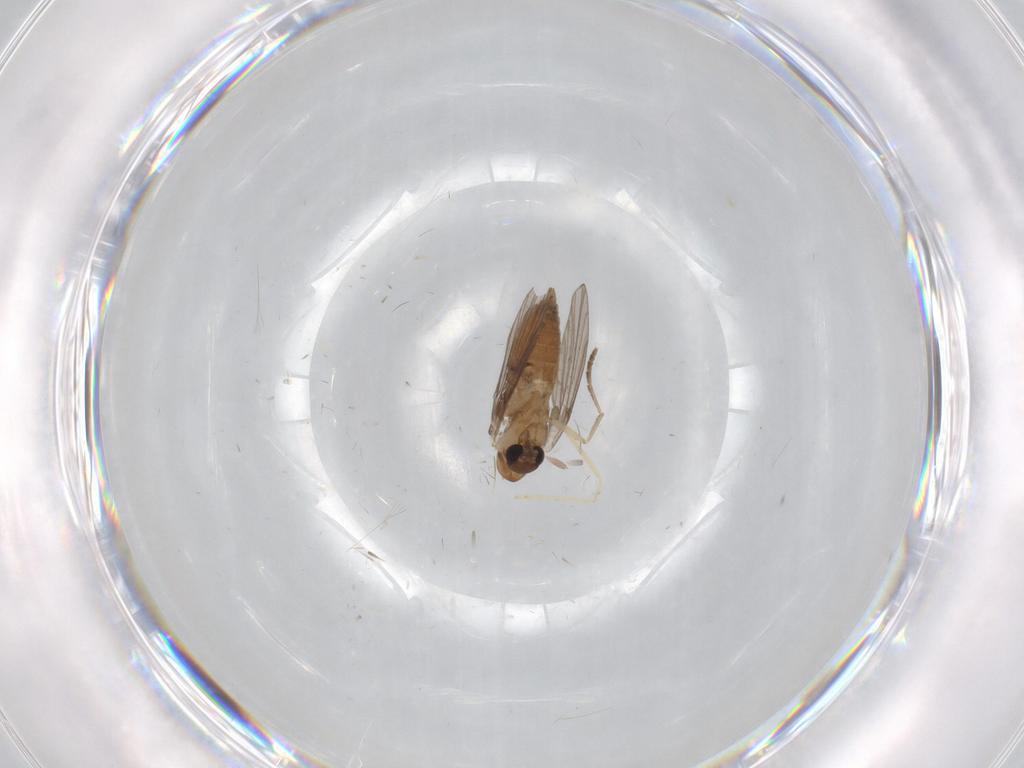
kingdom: Animalia
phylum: Arthropoda
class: Insecta
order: Diptera
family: Cecidomyiidae
